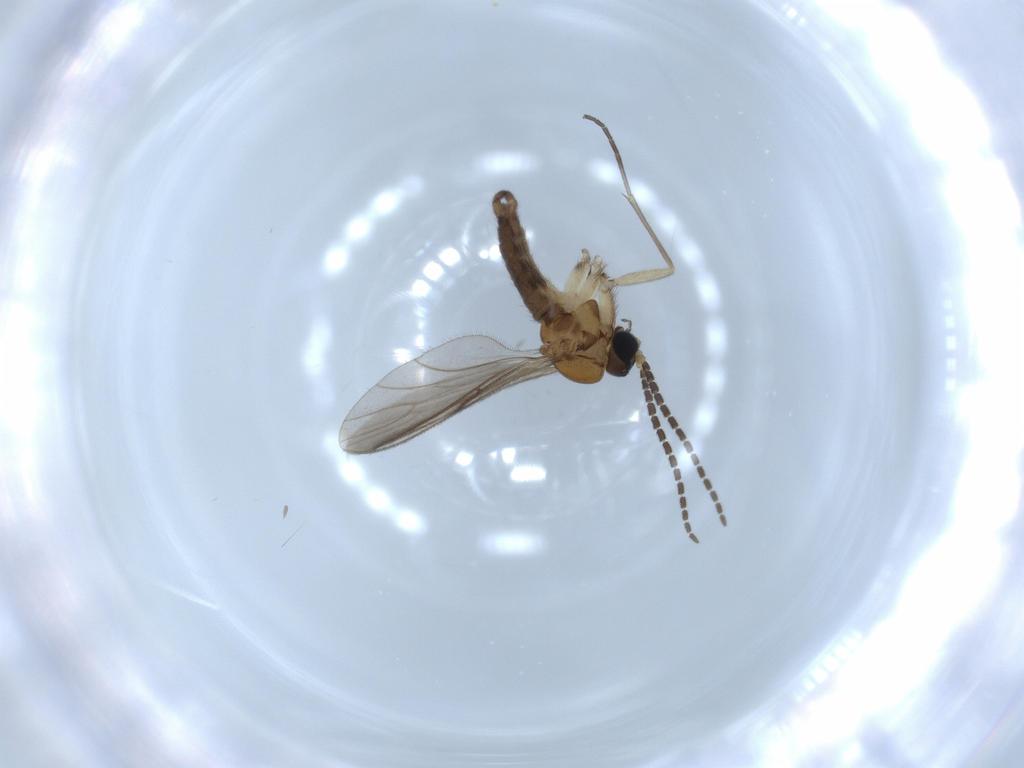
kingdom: Animalia
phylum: Arthropoda
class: Insecta
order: Diptera
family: Sciaridae
